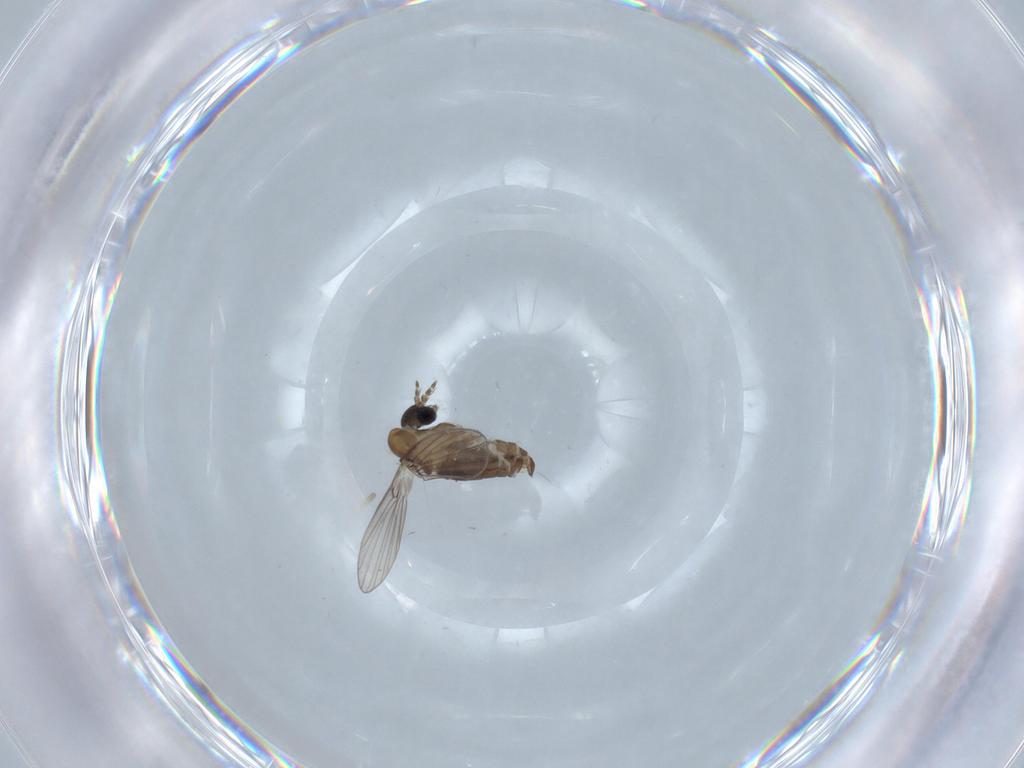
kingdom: Animalia
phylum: Arthropoda
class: Insecta
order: Diptera
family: Psychodidae
